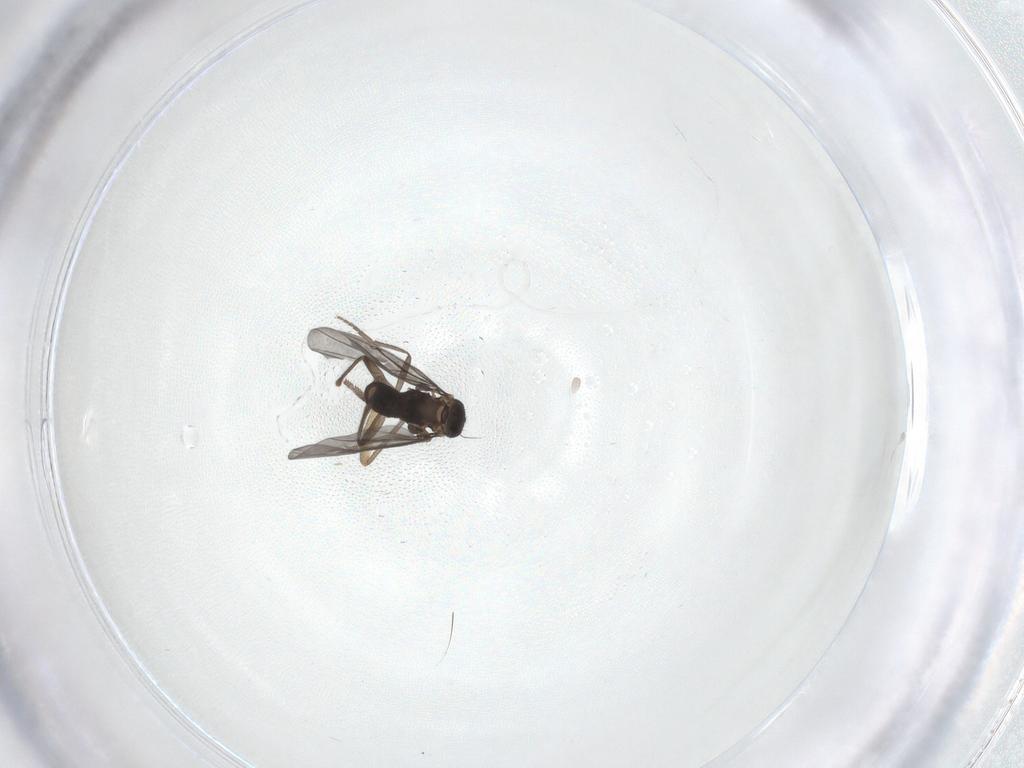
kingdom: Animalia
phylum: Arthropoda
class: Insecta
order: Diptera
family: Sciaridae
